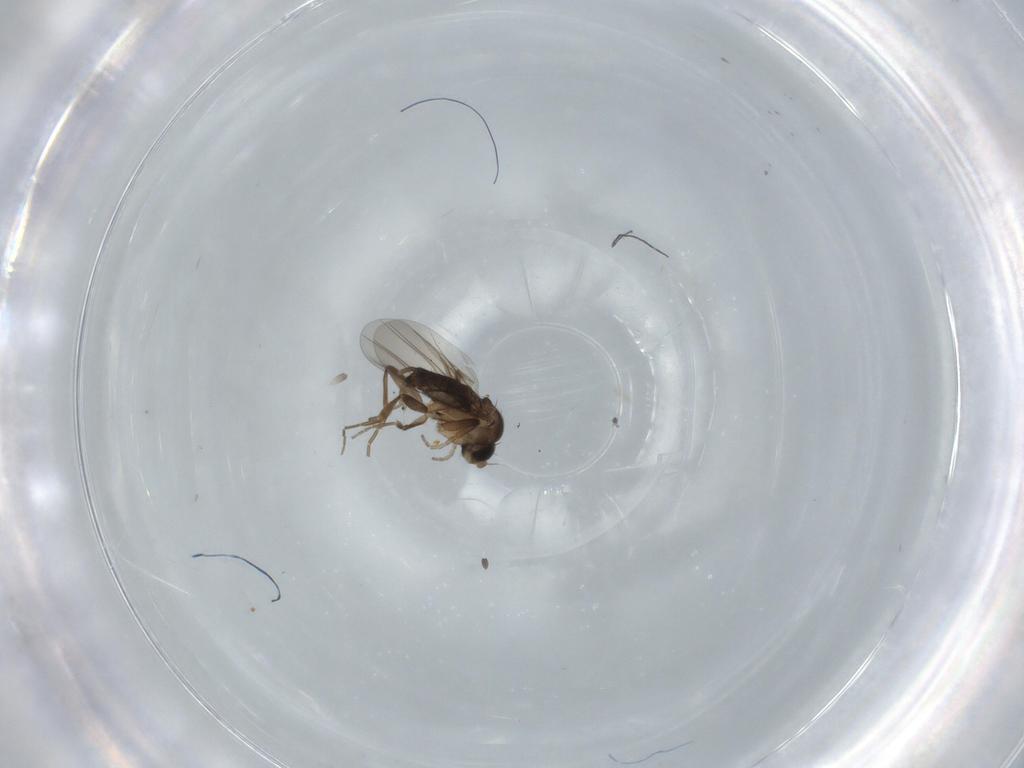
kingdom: Animalia
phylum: Arthropoda
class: Insecta
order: Diptera
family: Phoridae
